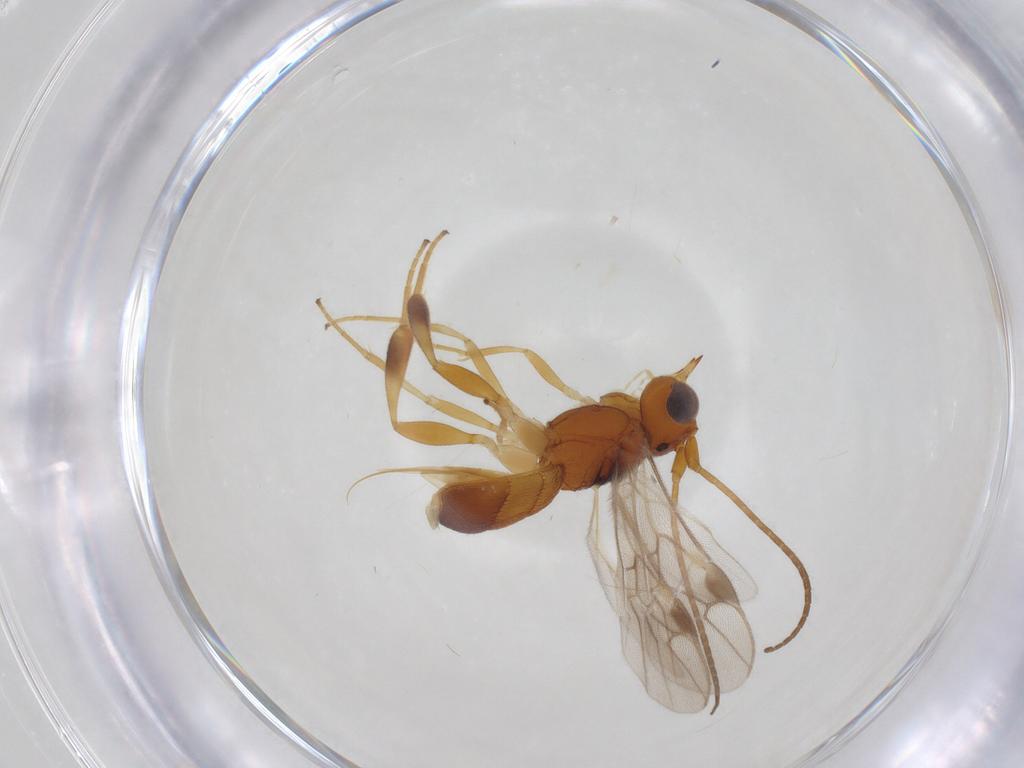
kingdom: Animalia
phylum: Arthropoda
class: Insecta
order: Hymenoptera
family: Braconidae
